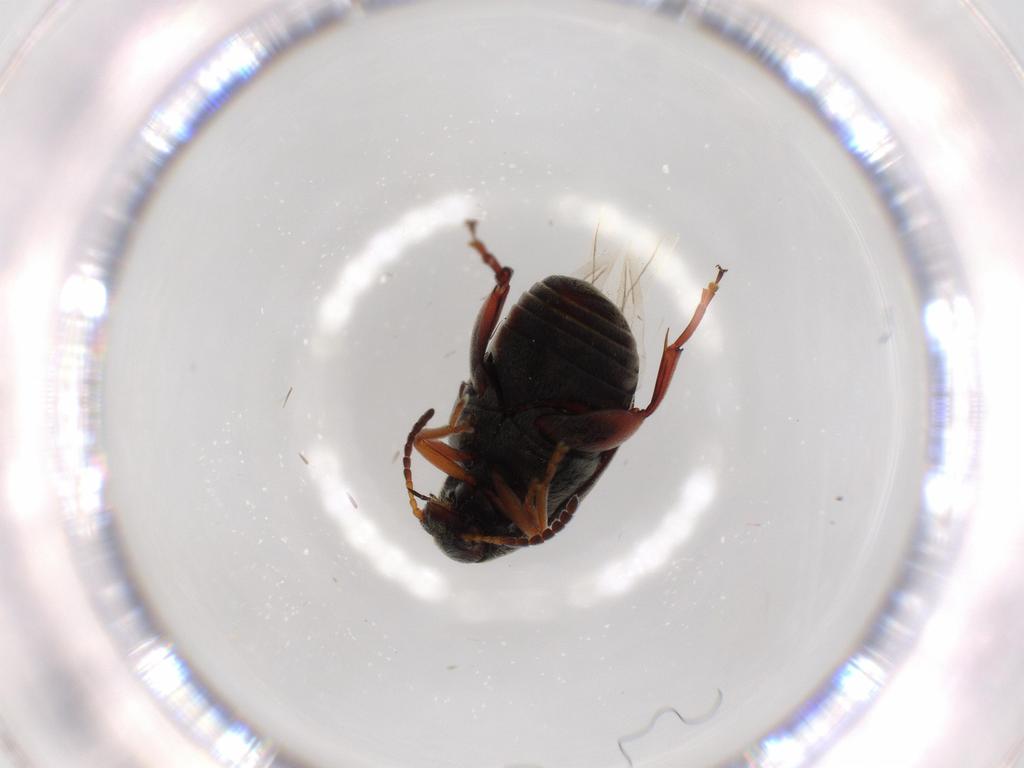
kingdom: Animalia
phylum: Arthropoda
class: Insecta
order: Coleoptera
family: Chrysomelidae
